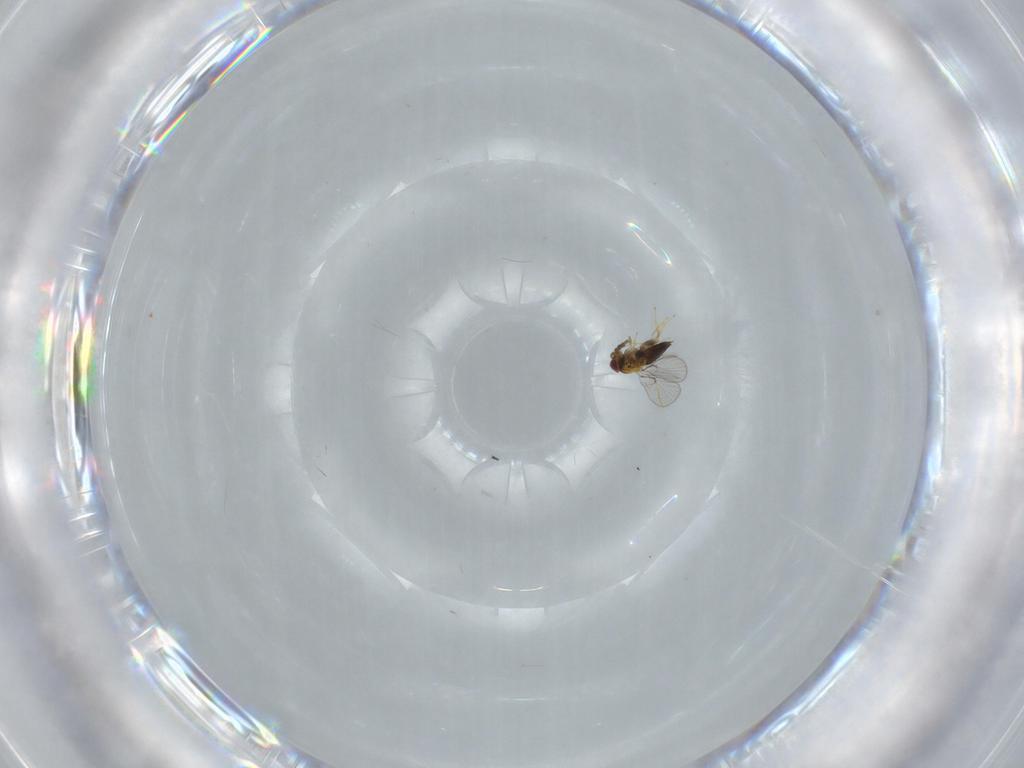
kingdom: Animalia
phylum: Arthropoda
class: Insecta
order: Hymenoptera
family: Trichogrammatidae
